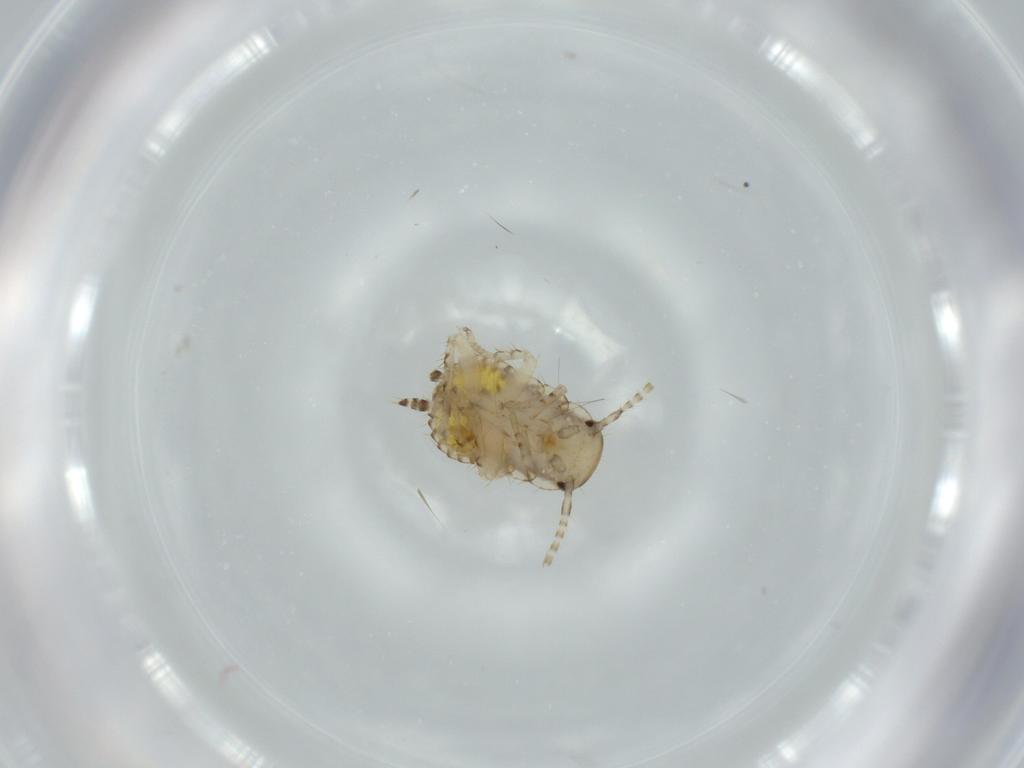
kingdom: Animalia
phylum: Arthropoda
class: Insecta
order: Blattodea
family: Ectobiidae
